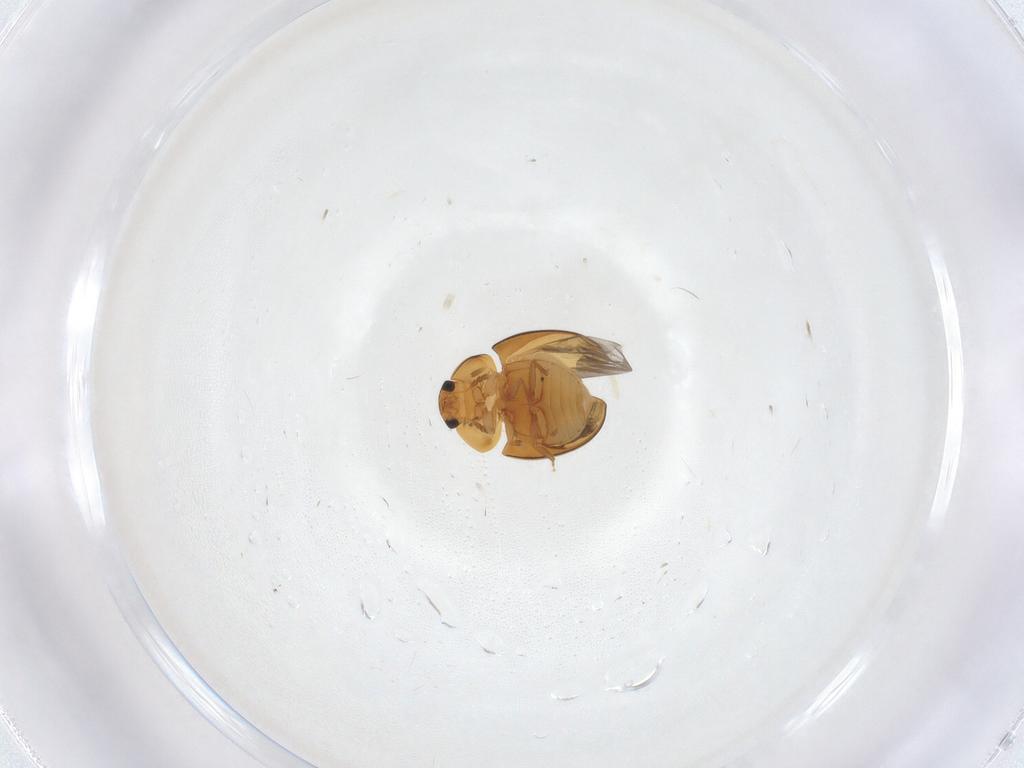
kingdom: Animalia
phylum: Arthropoda
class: Insecta
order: Coleoptera
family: Phalacridae
